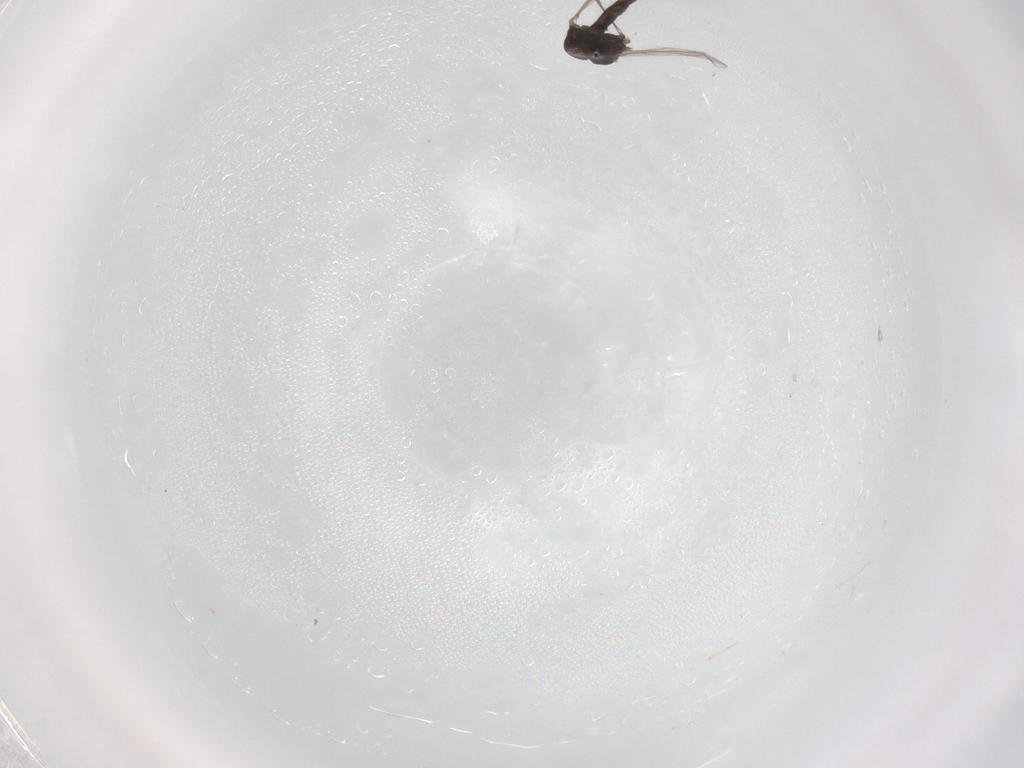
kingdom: Animalia
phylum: Arthropoda
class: Insecta
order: Diptera
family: Chironomidae
